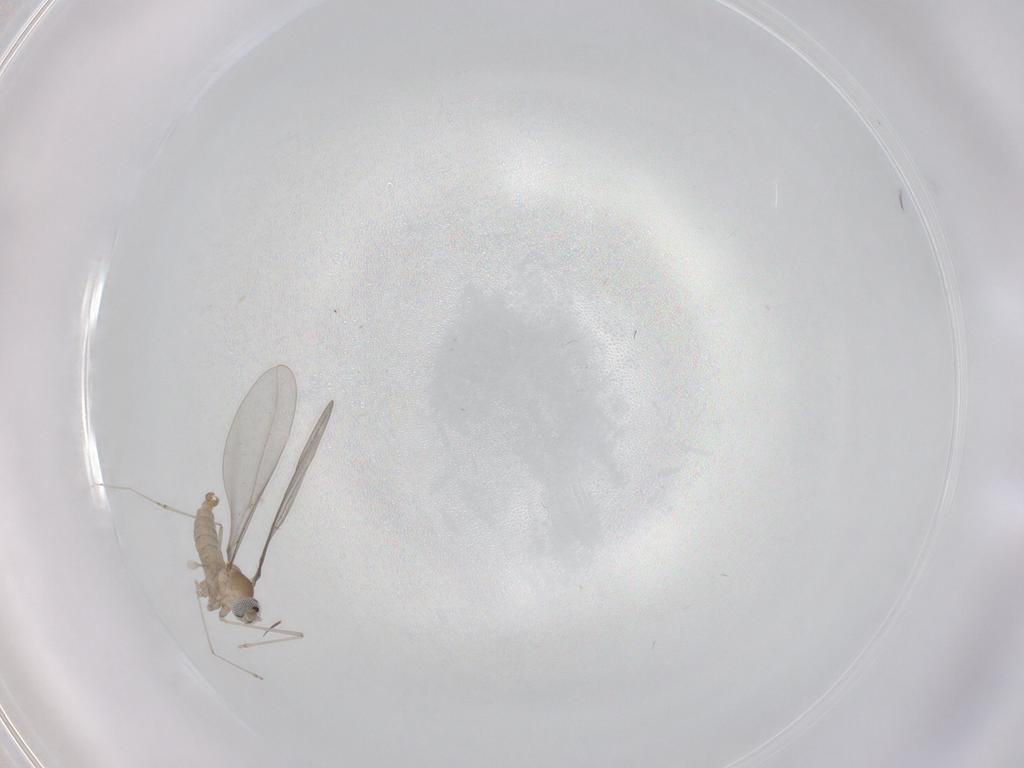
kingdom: Animalia
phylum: Arthropoda
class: Insecta
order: Diptera
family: Cecidomyiidae
